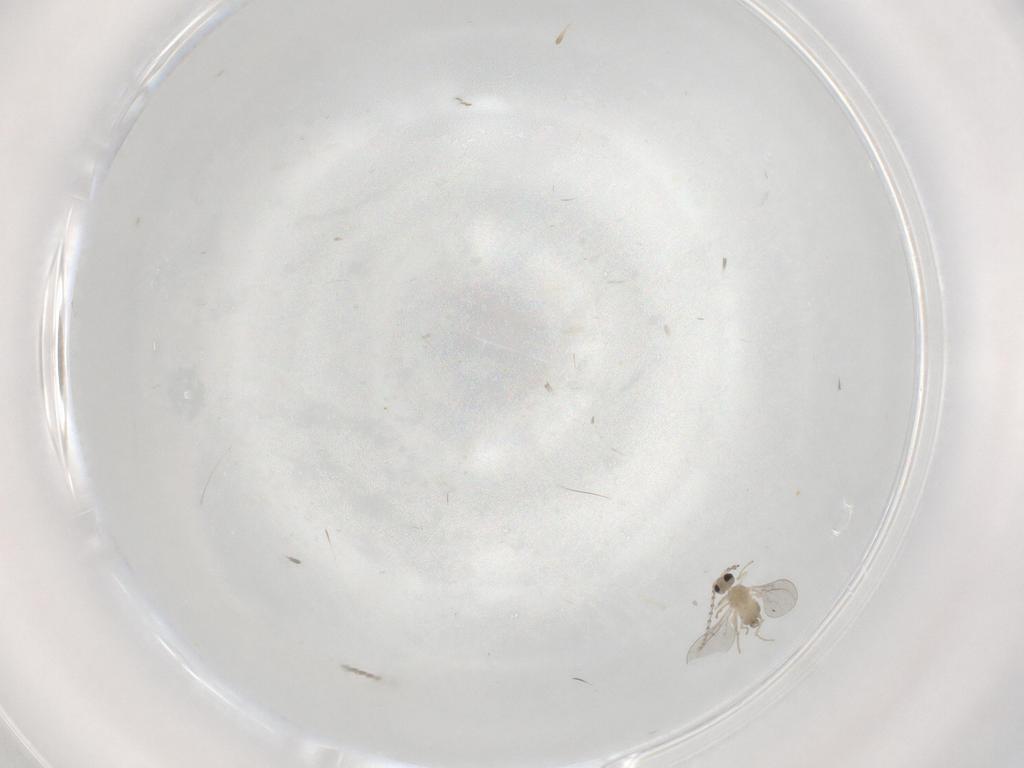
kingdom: Animalia
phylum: Arthropoda
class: Insecta
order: Diptera
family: Cecidomyiidae
